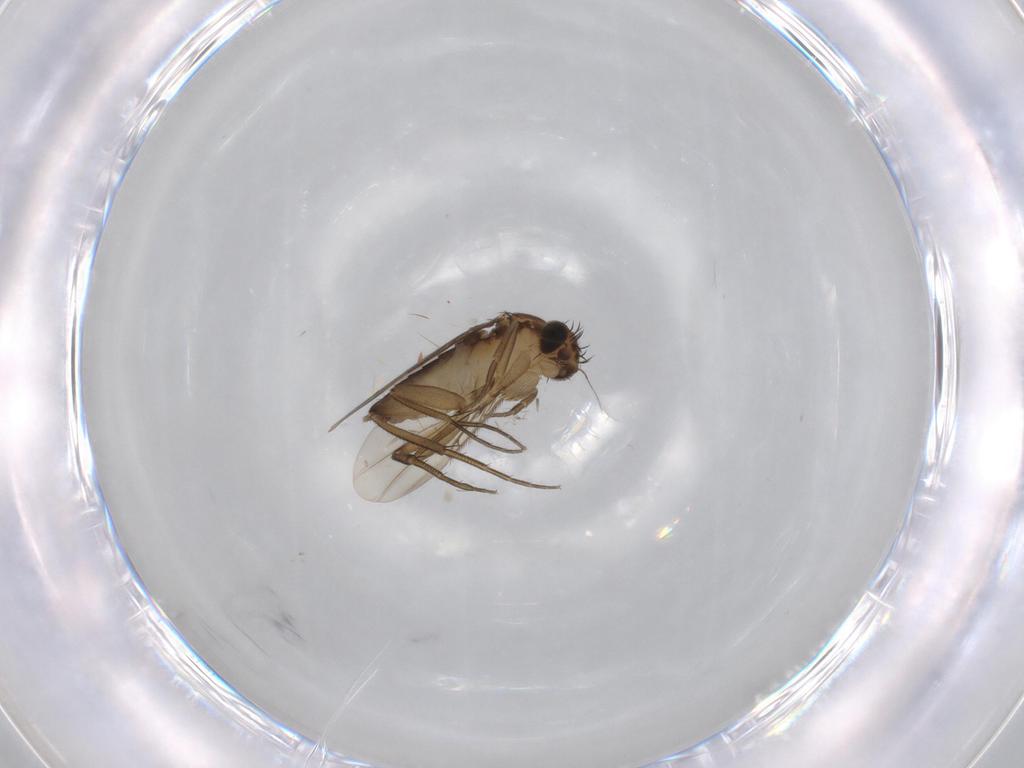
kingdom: Animalia
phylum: Arthropoda
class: Insecta
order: Diptera
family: Phoridae
